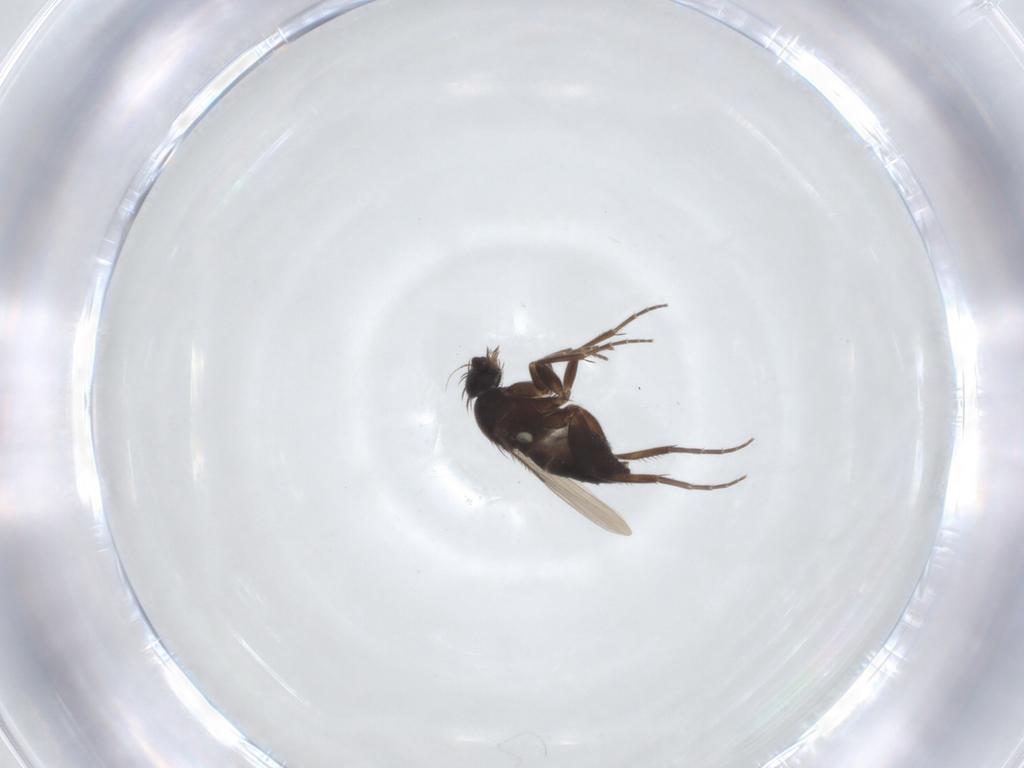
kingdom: Animalia
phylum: Arthropoda
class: Insecta
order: Diptera
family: Phoridae
